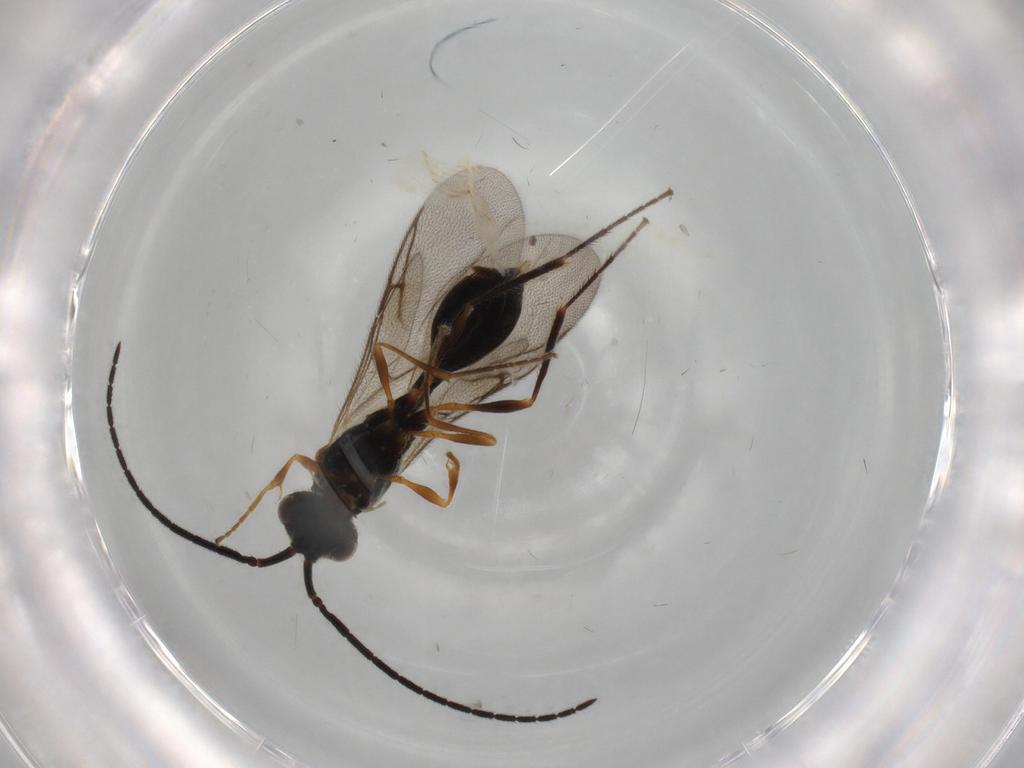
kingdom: Animalia
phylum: Arthropoda
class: Insecta
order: Hymenoptera
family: Diapriidae
